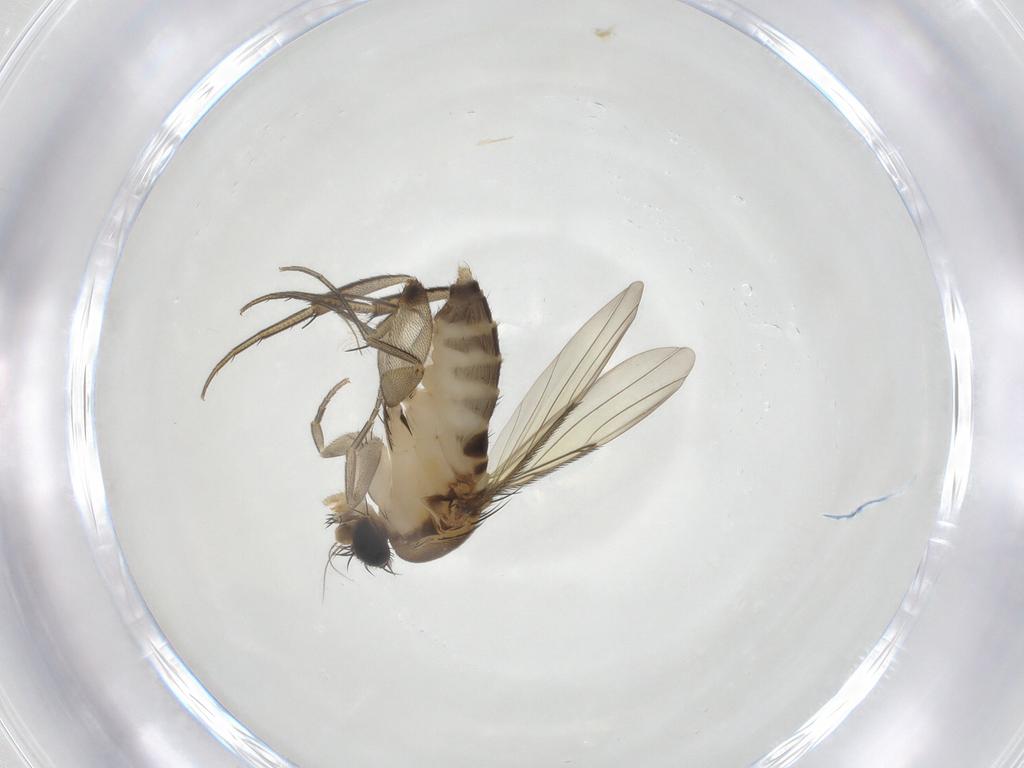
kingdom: Animalia
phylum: Arthropoda
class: Insecta
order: Diptera
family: Phoridae
